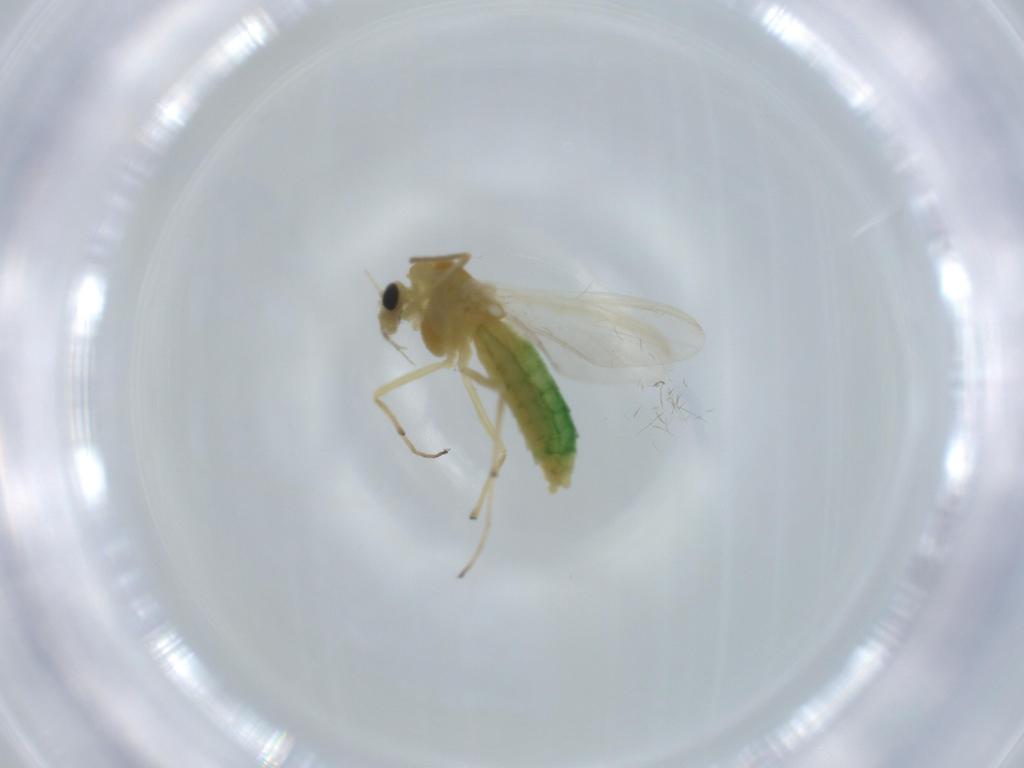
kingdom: Animalia
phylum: Arthropoda
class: Insecta
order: Diptera
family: Chironomidae
